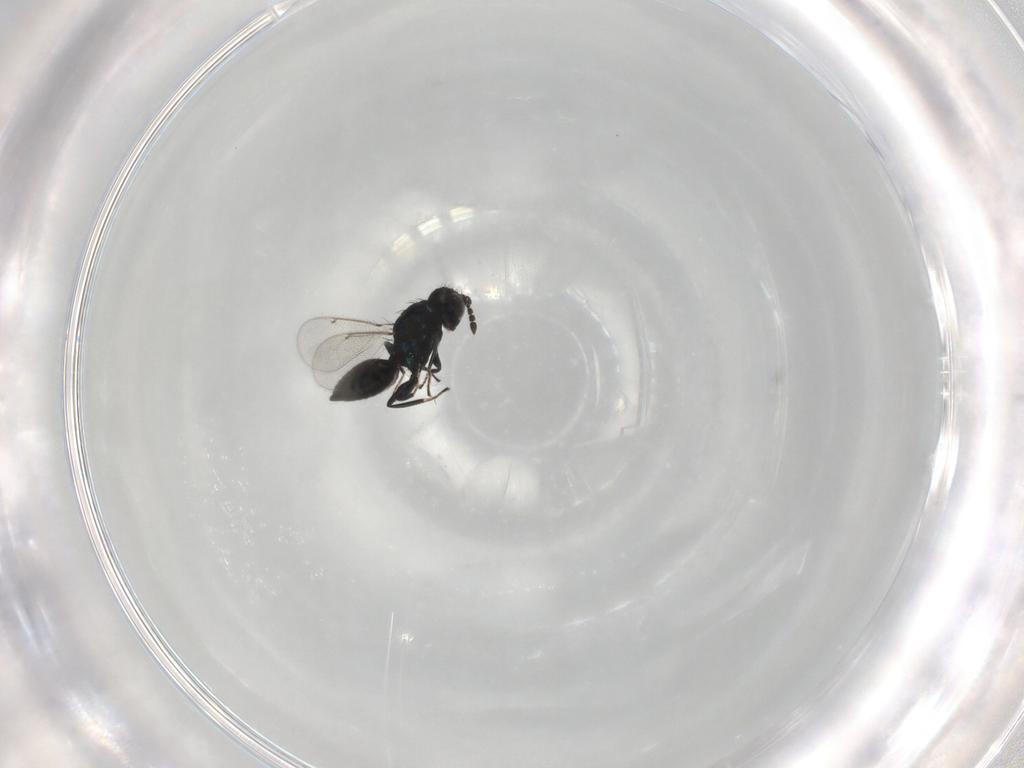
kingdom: Animalia
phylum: Arthropoda
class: Insecta
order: Hymenoptera
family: Eulophidae
